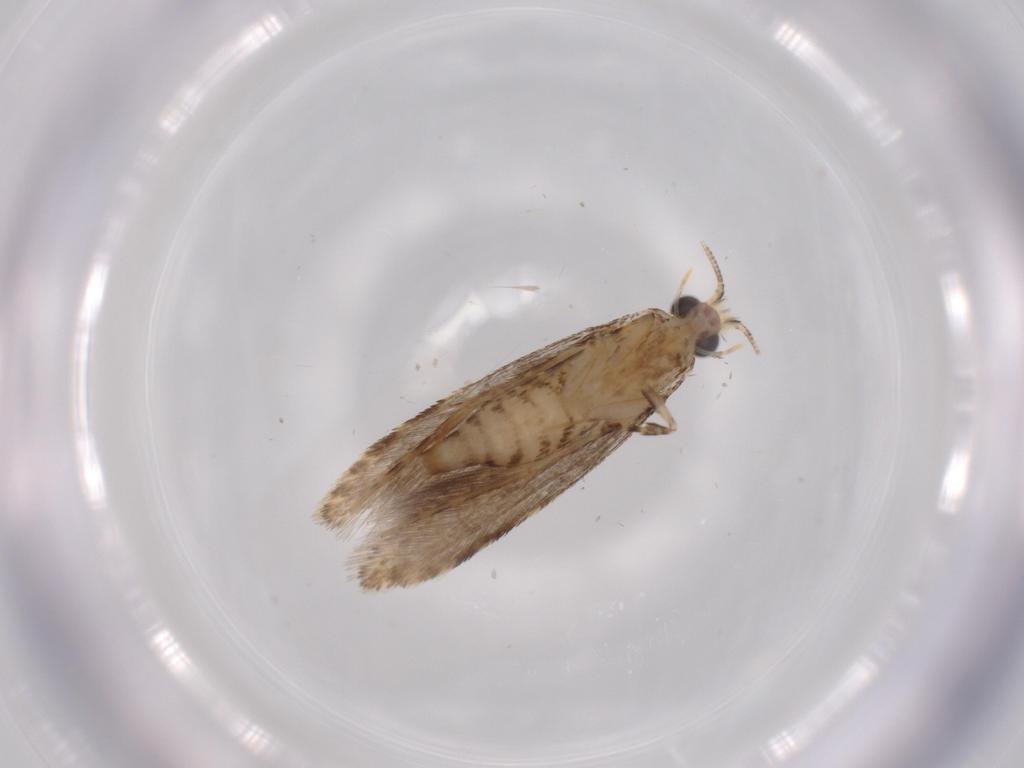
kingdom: Animalia
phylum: Arthropoda
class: Insecta
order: Lepidoptera
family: Tineidae
